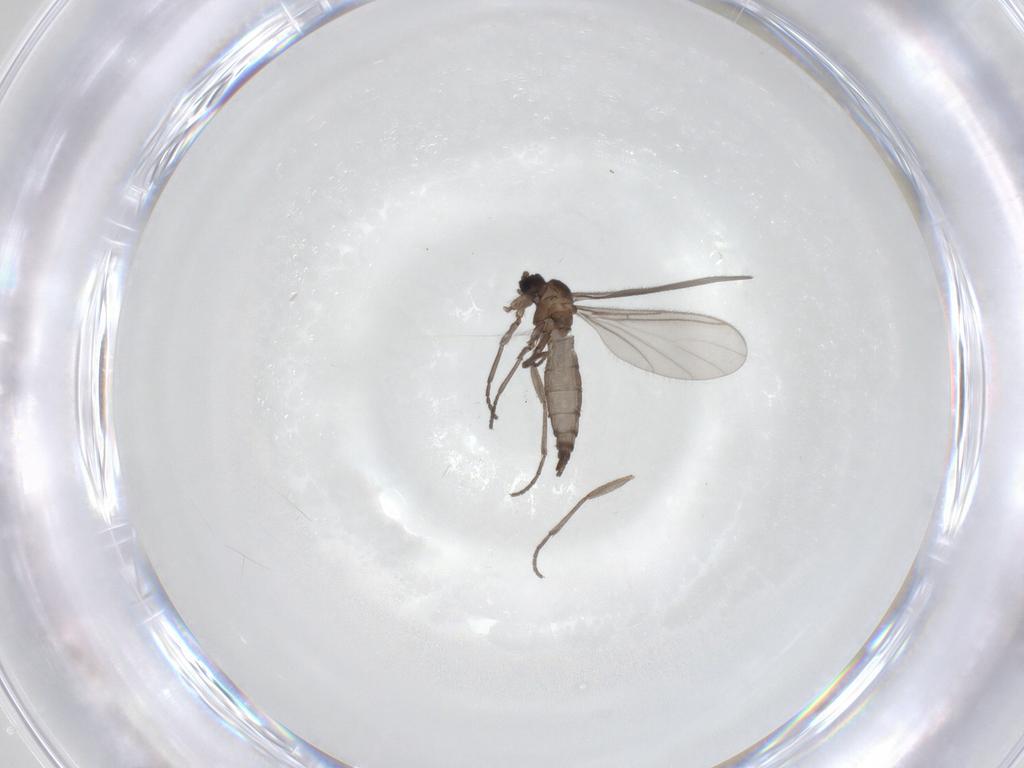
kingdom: Animalia
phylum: Arthropoda
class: Insecta
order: Diptera
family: Sciaridae
